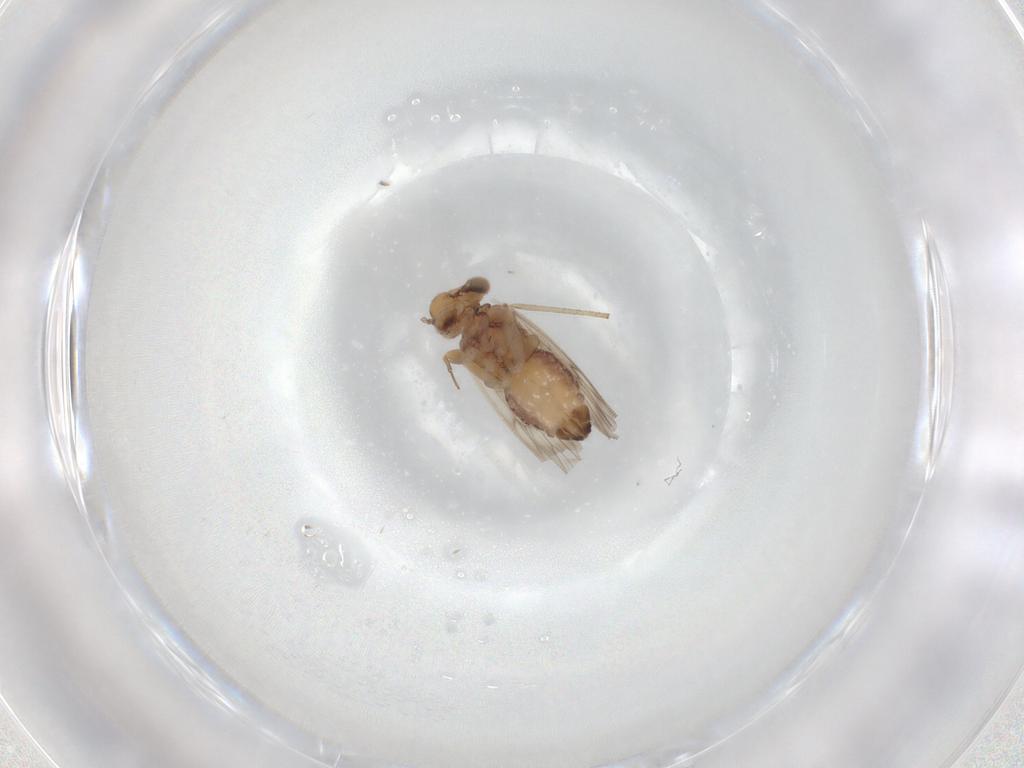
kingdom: Animalia
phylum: Arthropoda
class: Insecta
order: Psocodea
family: Lepidopsocidae
